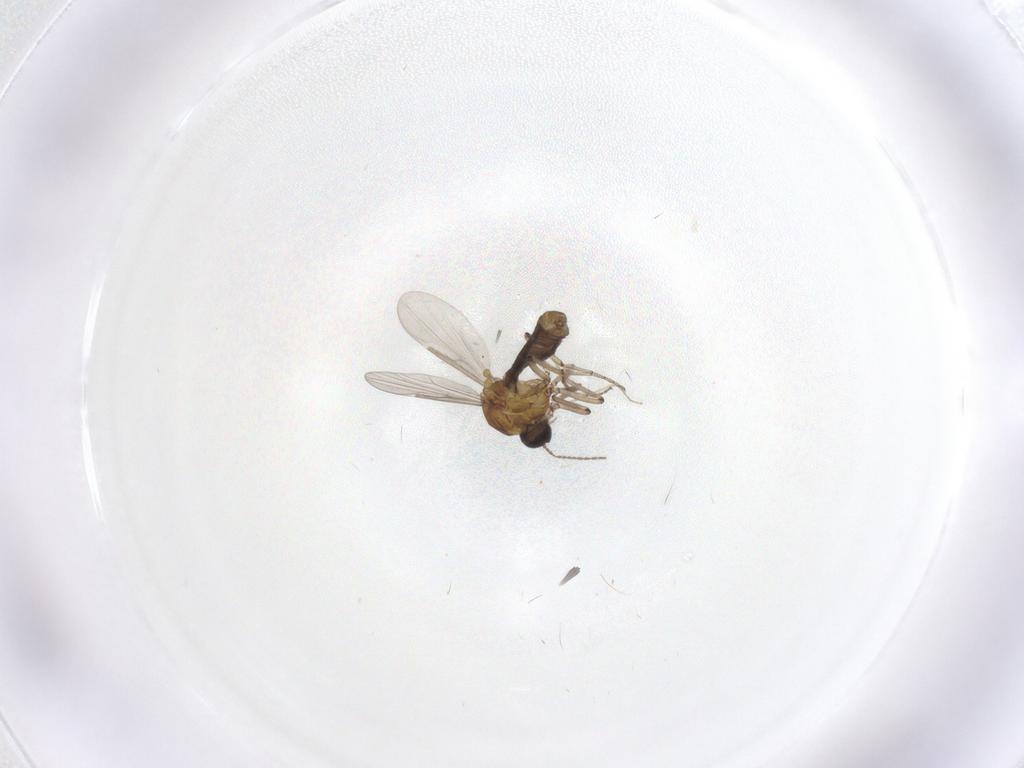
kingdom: Animalia
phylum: Arthropoda
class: Insecta
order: Diptera
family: Ceratopogonidae
